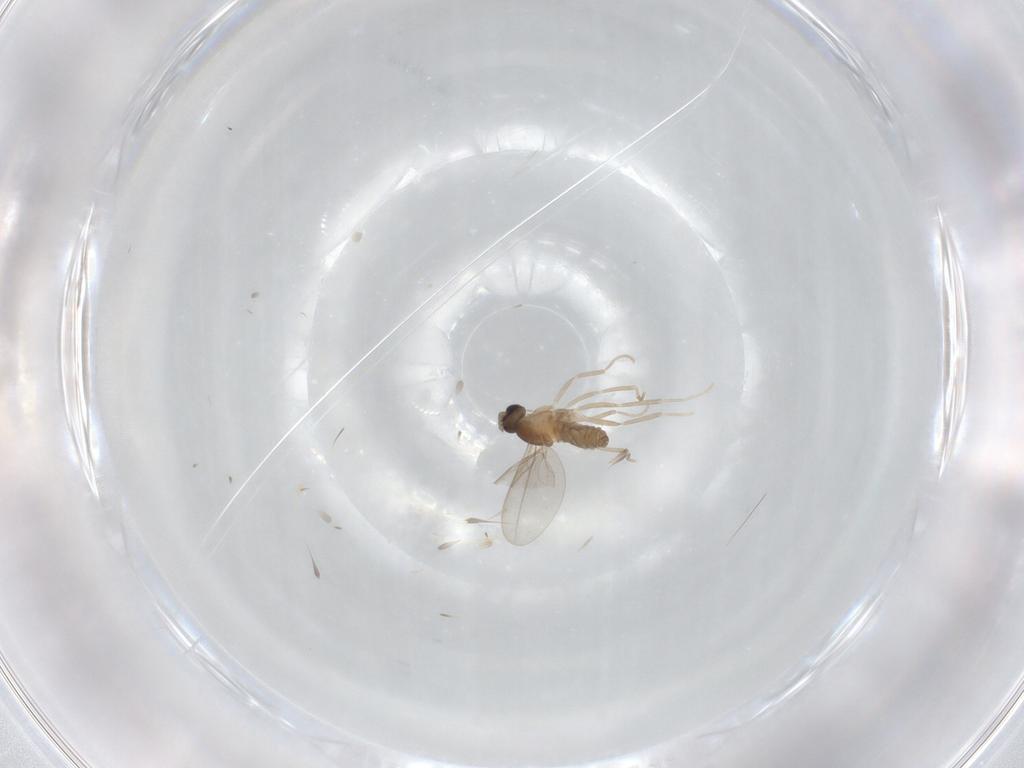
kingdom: Animalia
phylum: Arthropoda
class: Insecta
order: Diptera
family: Cecidomyiidae
